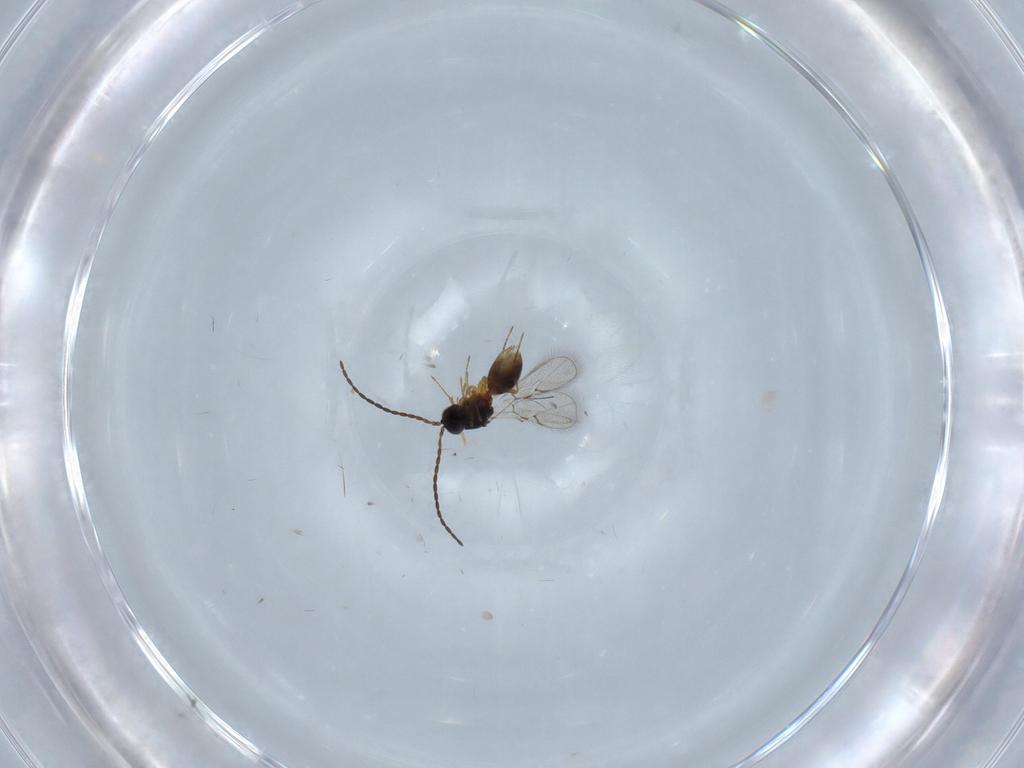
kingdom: Animalia
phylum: Arthropoda
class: Insecta
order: Hymenoptera
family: Figitidae
